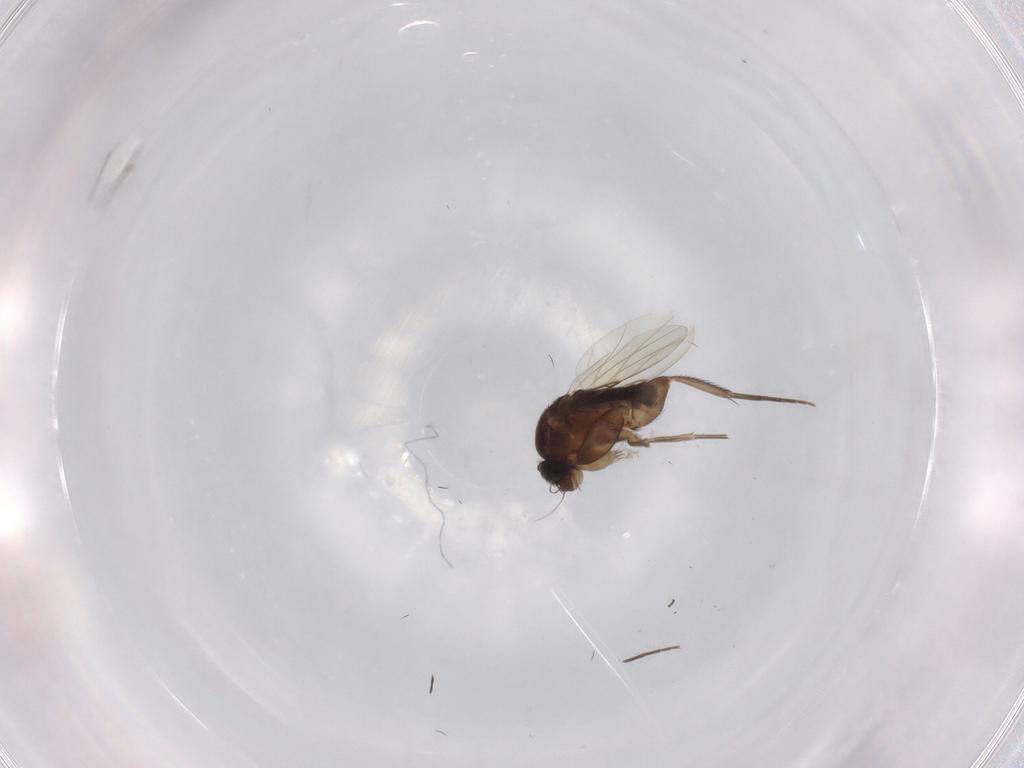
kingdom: Animalia
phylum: Arthropoda
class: Insecta
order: Diptera
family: Phoridae
